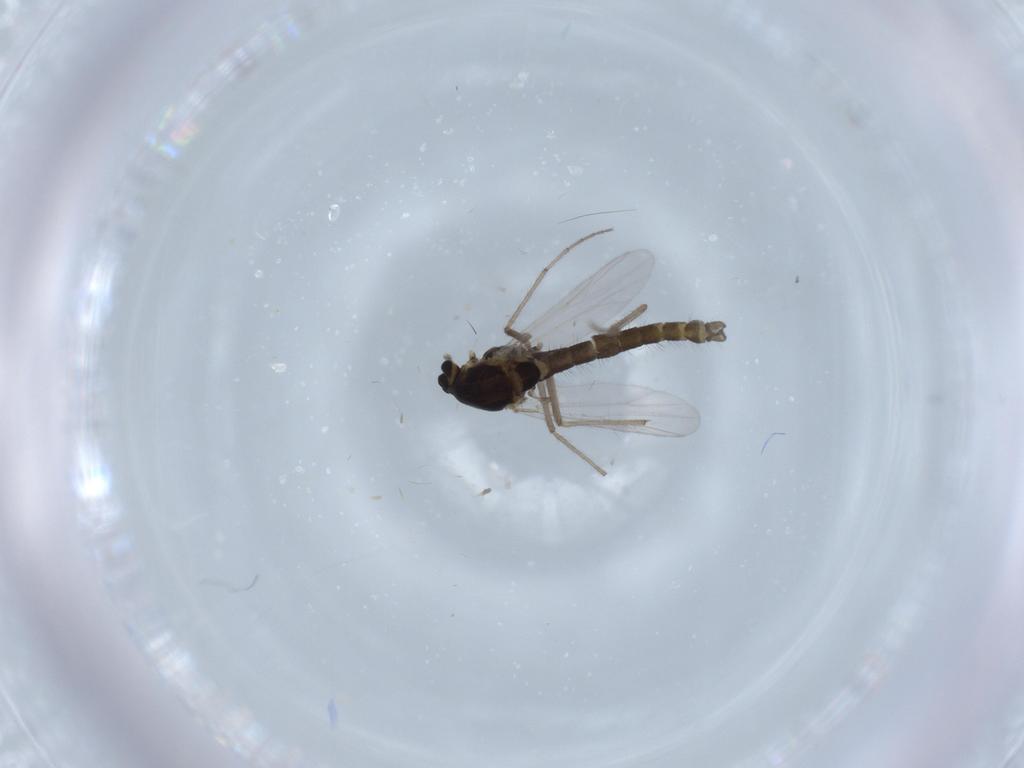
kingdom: Animalia
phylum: Arthropoda
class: Insecta
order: Diptera
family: Chironomidae
